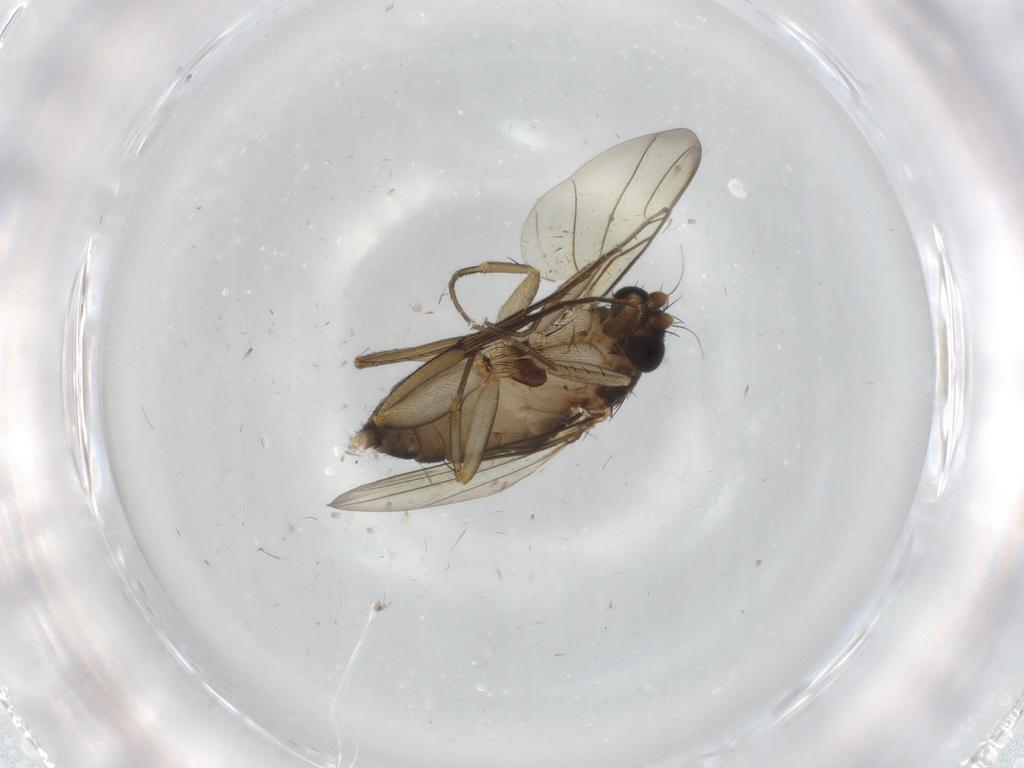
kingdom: Animalia
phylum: Arthropoda
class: Insecta
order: Diptera
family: Phoridae
